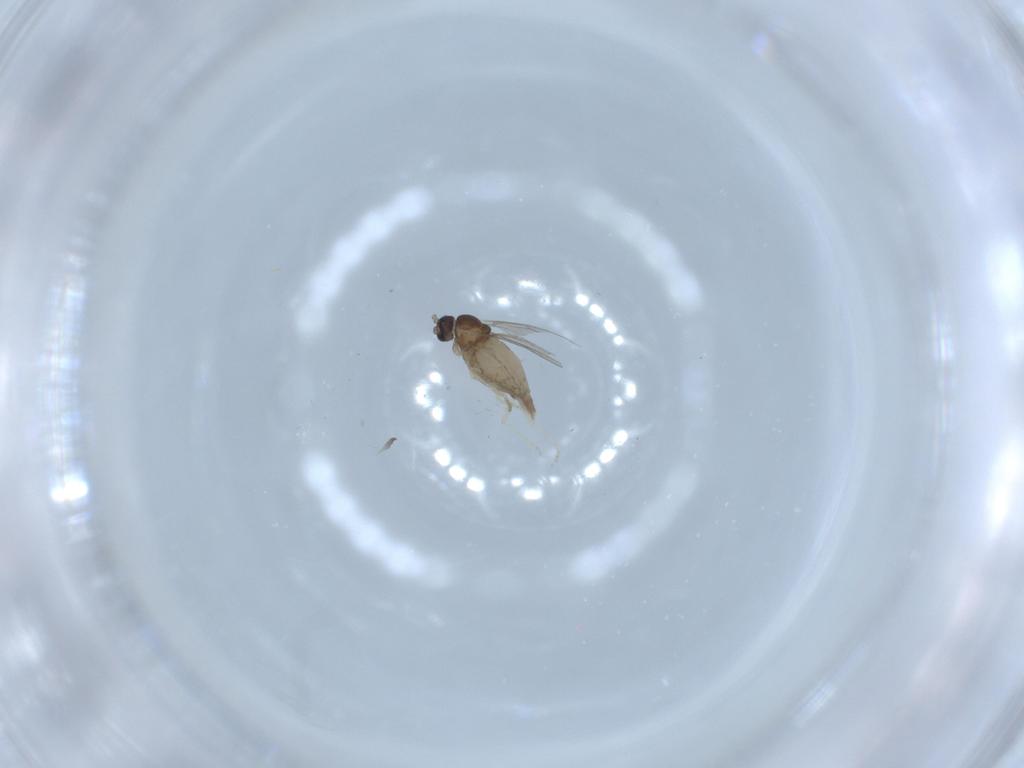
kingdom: Animalia
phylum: Arthropoda
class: Insecta
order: Diptera
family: Cecidomyiidae
